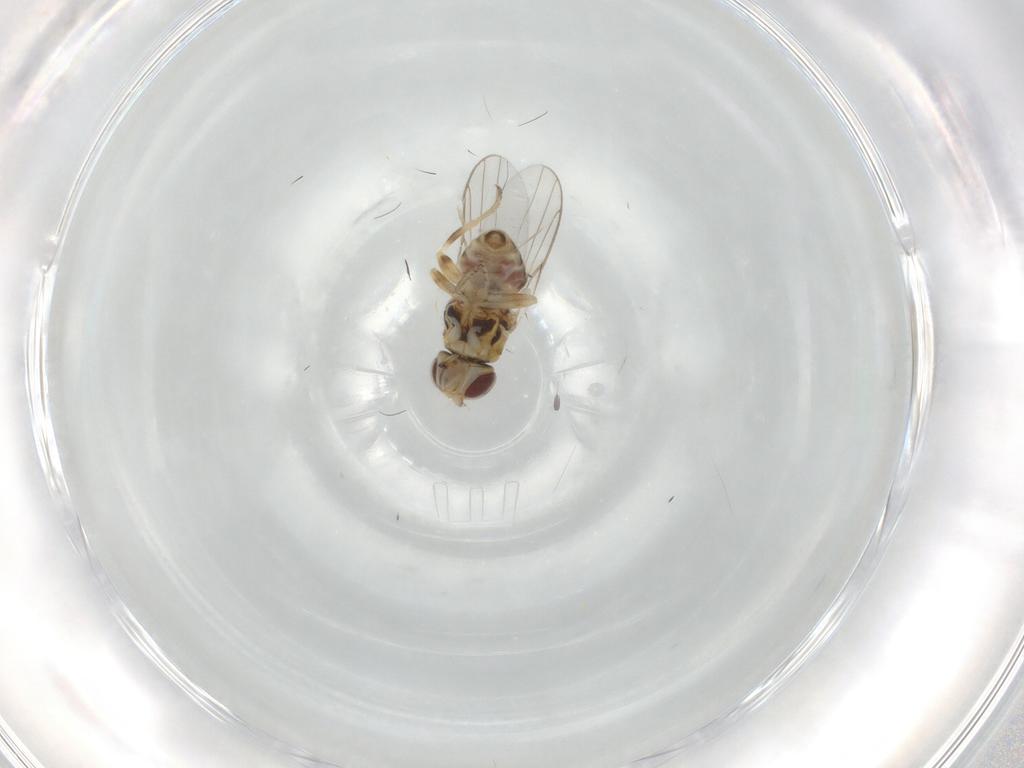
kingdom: Animalia
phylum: Arthropoda
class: Insecta
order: Diptera
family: Chloropidae
